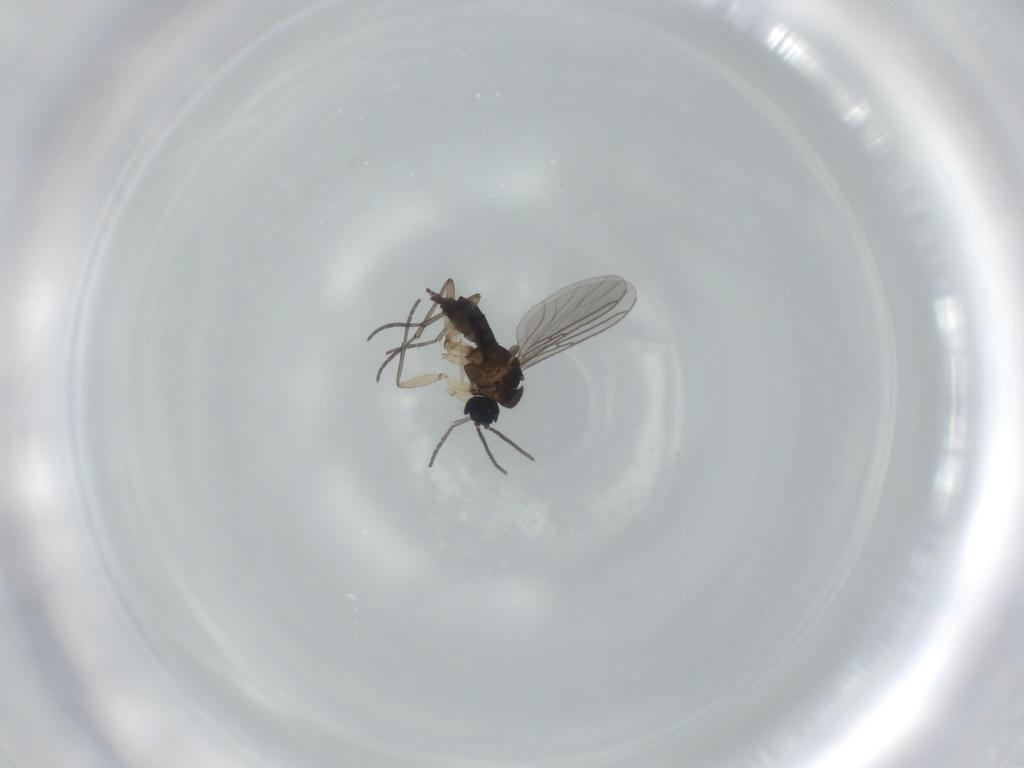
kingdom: Animalia
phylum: Arthropoda
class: Insecta
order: Diptera
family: Sciaridae
